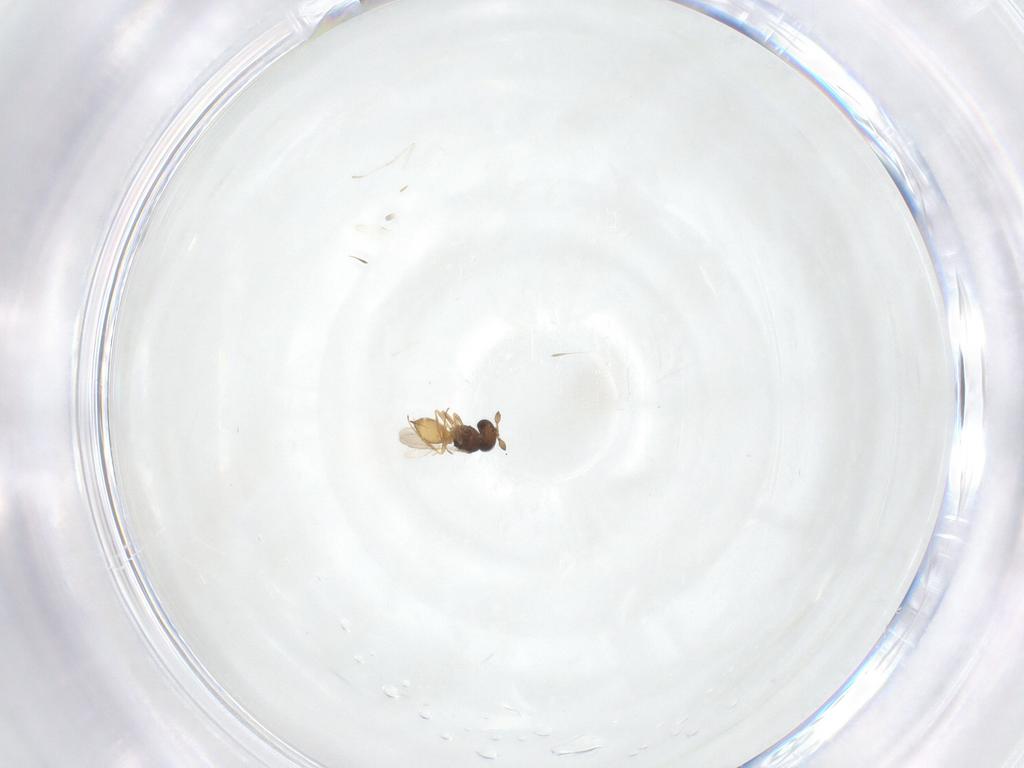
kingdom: Animalia
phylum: Arthropoda
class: Insecta
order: Hymenoptera
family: Scelionidae
